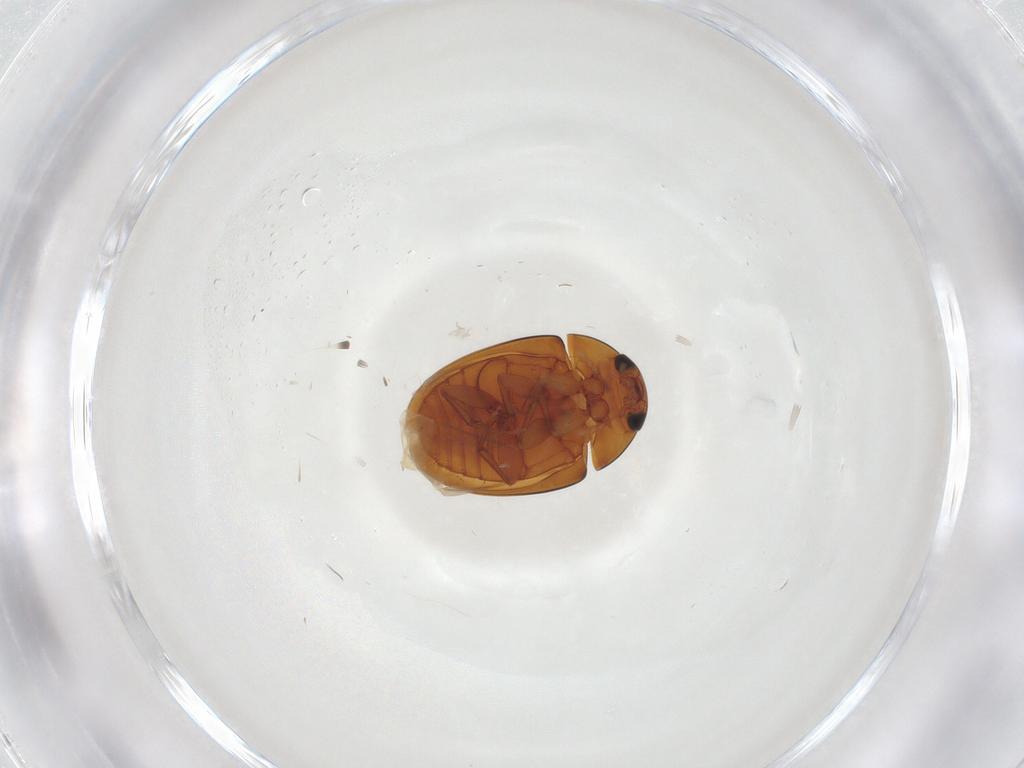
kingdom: Animalia
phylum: Arthropoda
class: Insecta
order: Coleoptera
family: Phalacridae
